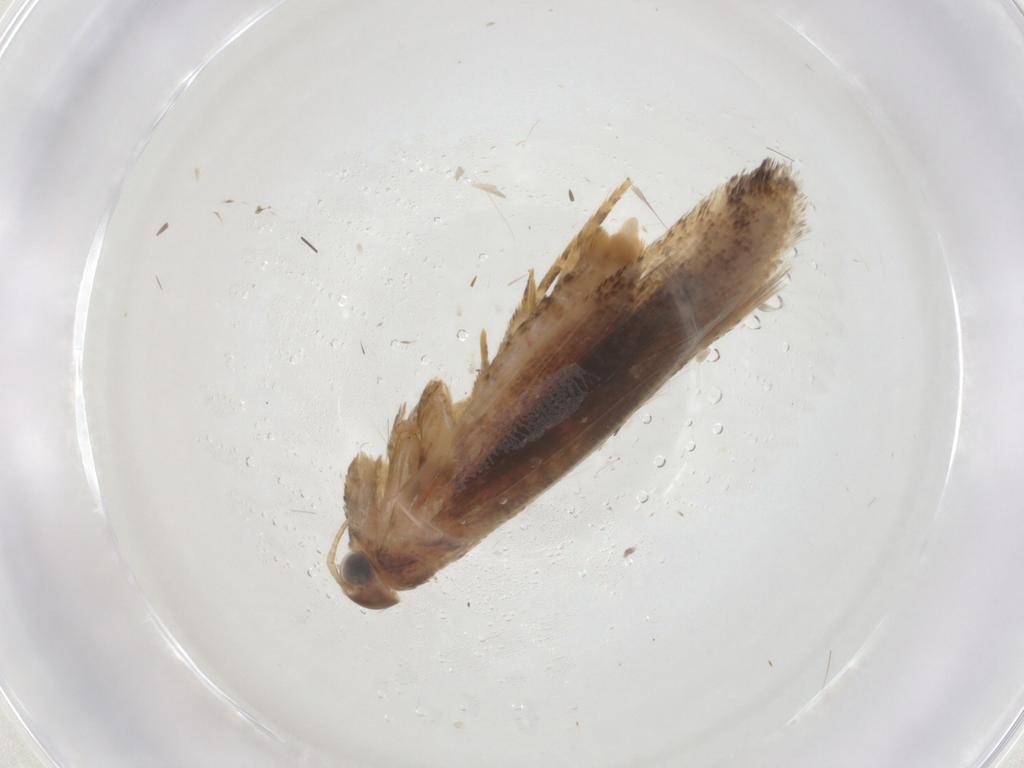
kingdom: Animalia
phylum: Arthropoda
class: Insecta
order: Lepidoptera
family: Gelechiidae
